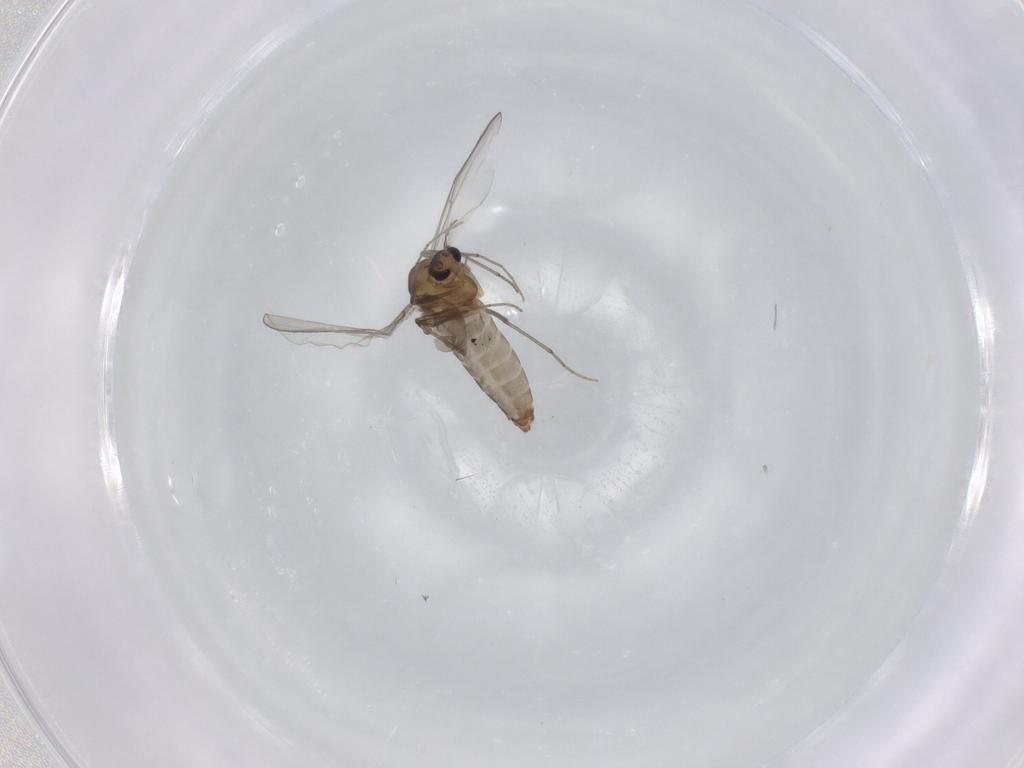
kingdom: Animalia
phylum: Arthropoda
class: Insecta
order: Diptera
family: Chironomidae
